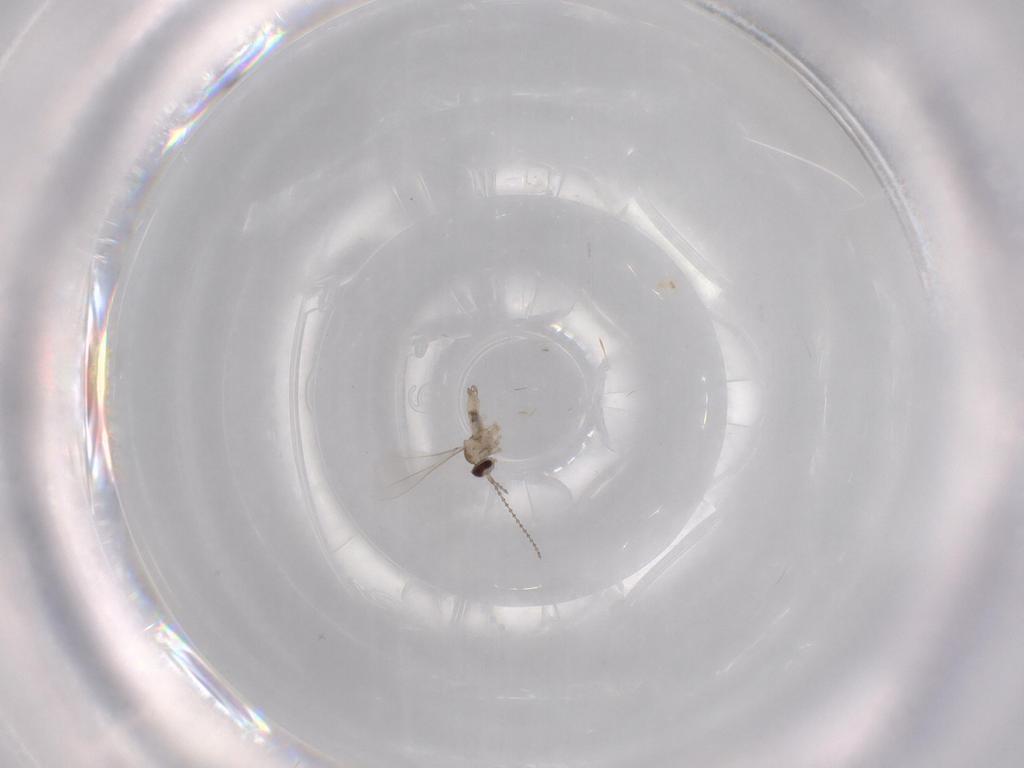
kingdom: Animalia
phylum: Arthropoda
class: Insecta
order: Diptera
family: Cecidomyiidae
